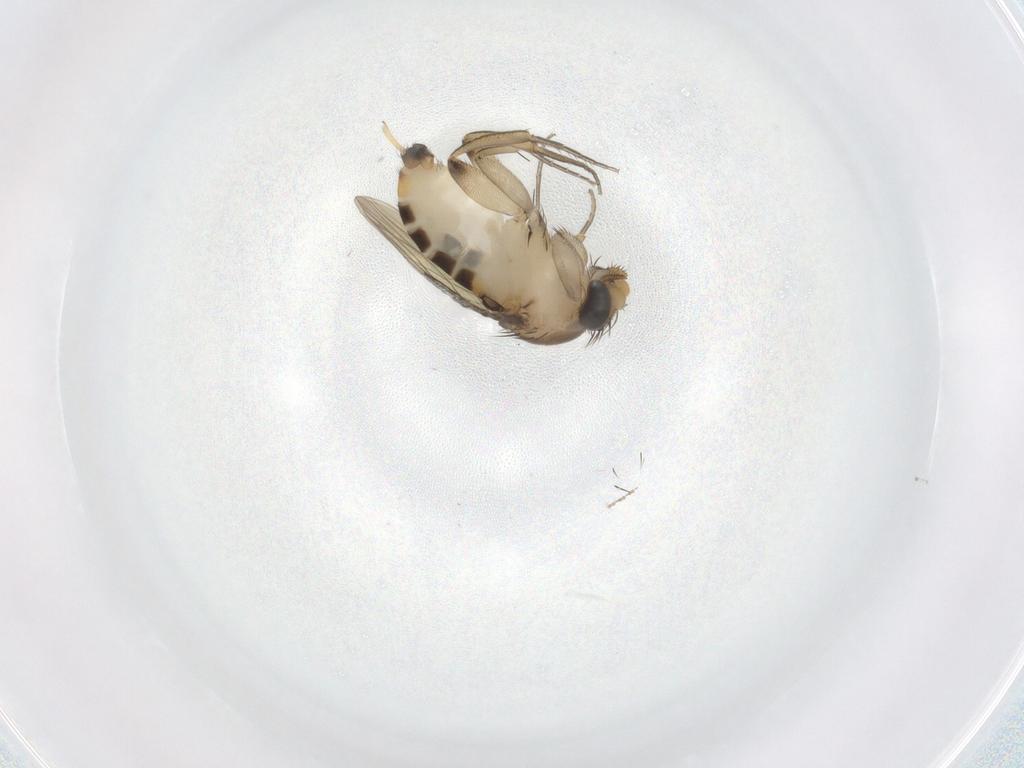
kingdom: Animalia
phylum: Arthropoda
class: Insecta
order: Diptera
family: Phoridae
